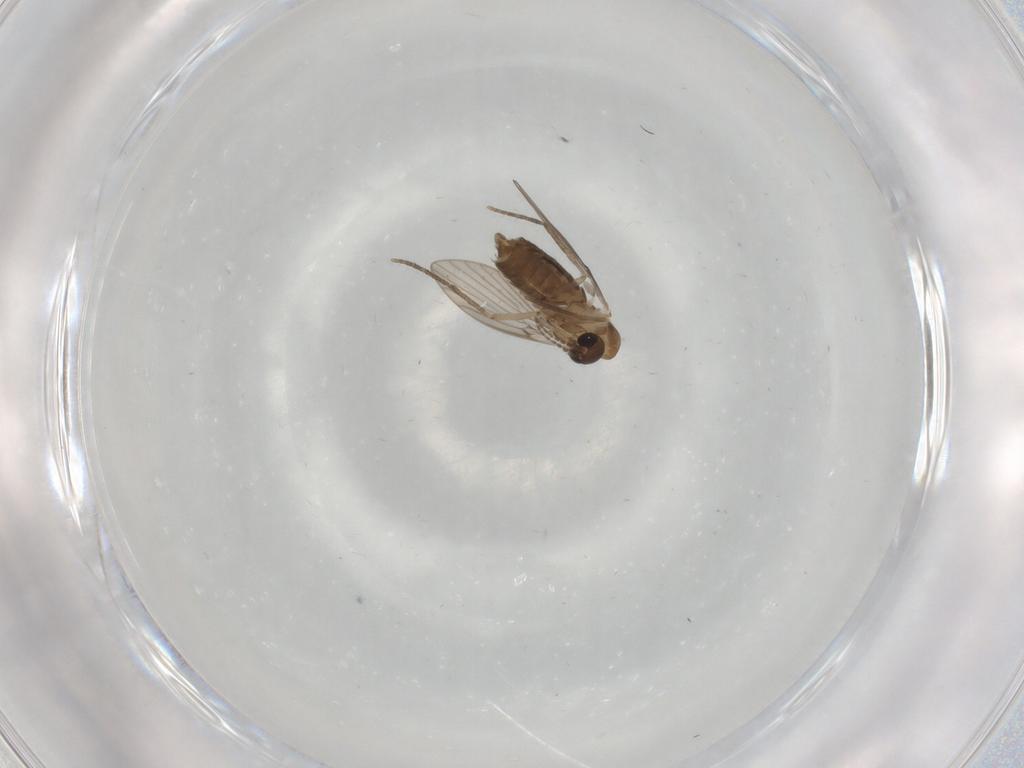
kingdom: Animalia
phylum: Arthropoda
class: Insecta
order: Diptera
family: Psychodidae
